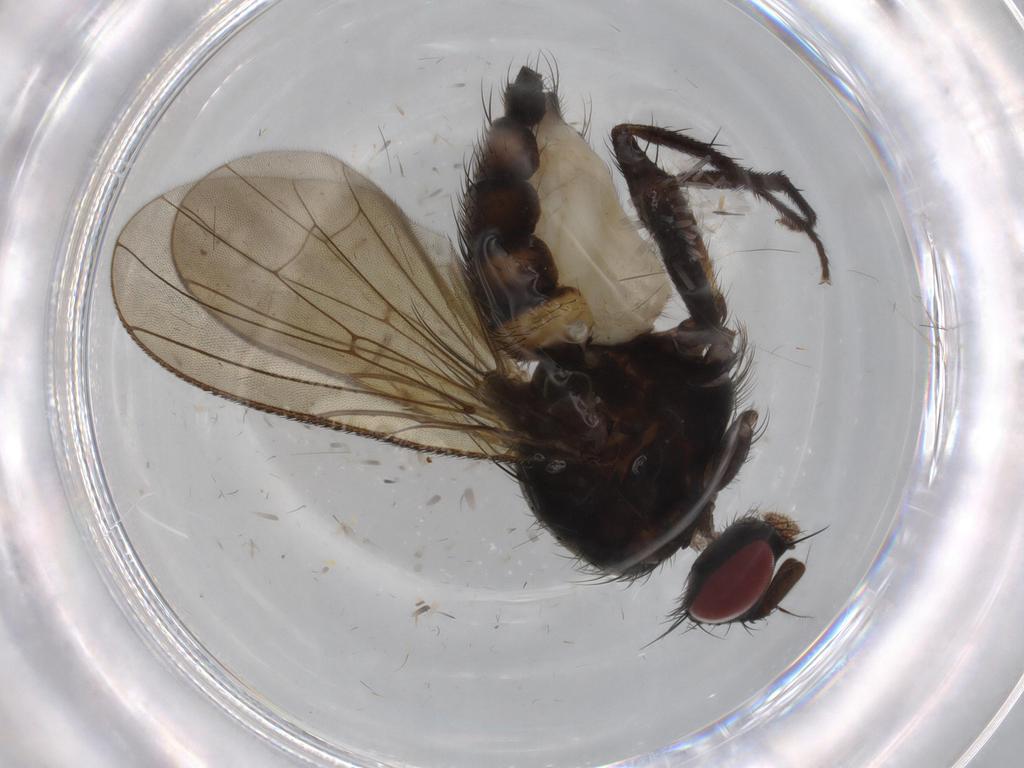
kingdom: Animalia
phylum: Arthropoda
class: Insecta
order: Diptera
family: Anthomyiidae
